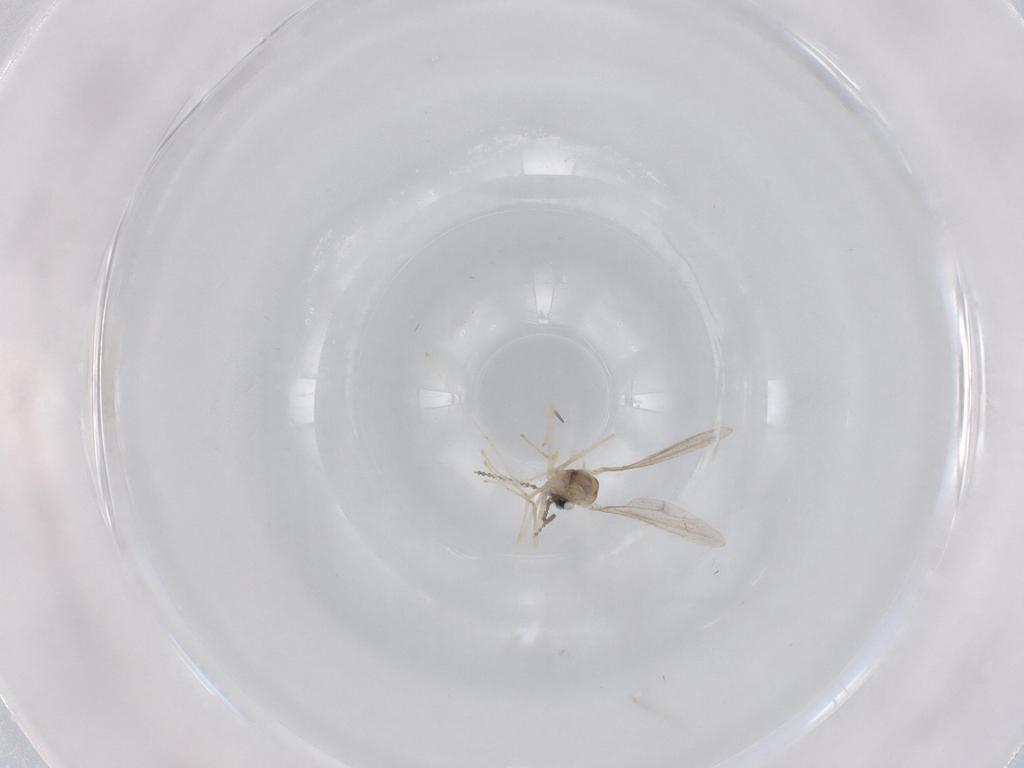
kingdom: Animalia
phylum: Arthropoda
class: Insecta
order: Diptera
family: Cecidomyiidae
